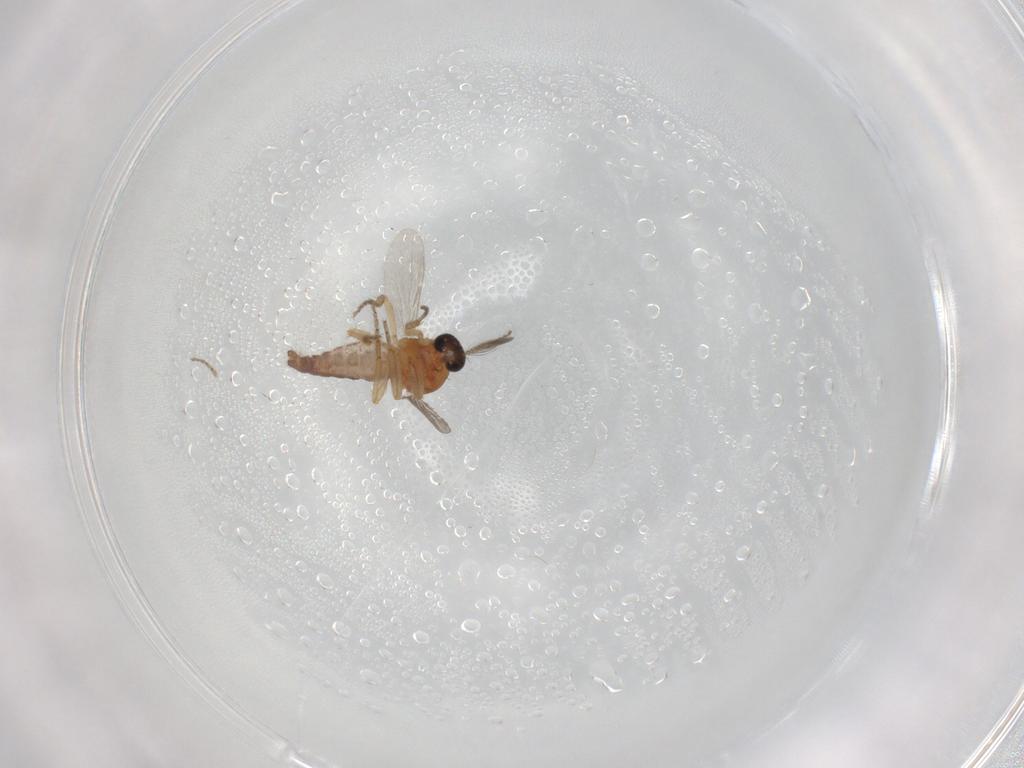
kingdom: Animalia
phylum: Arthropoda
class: Insecta
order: Diptera
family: Ceratopogonidae
